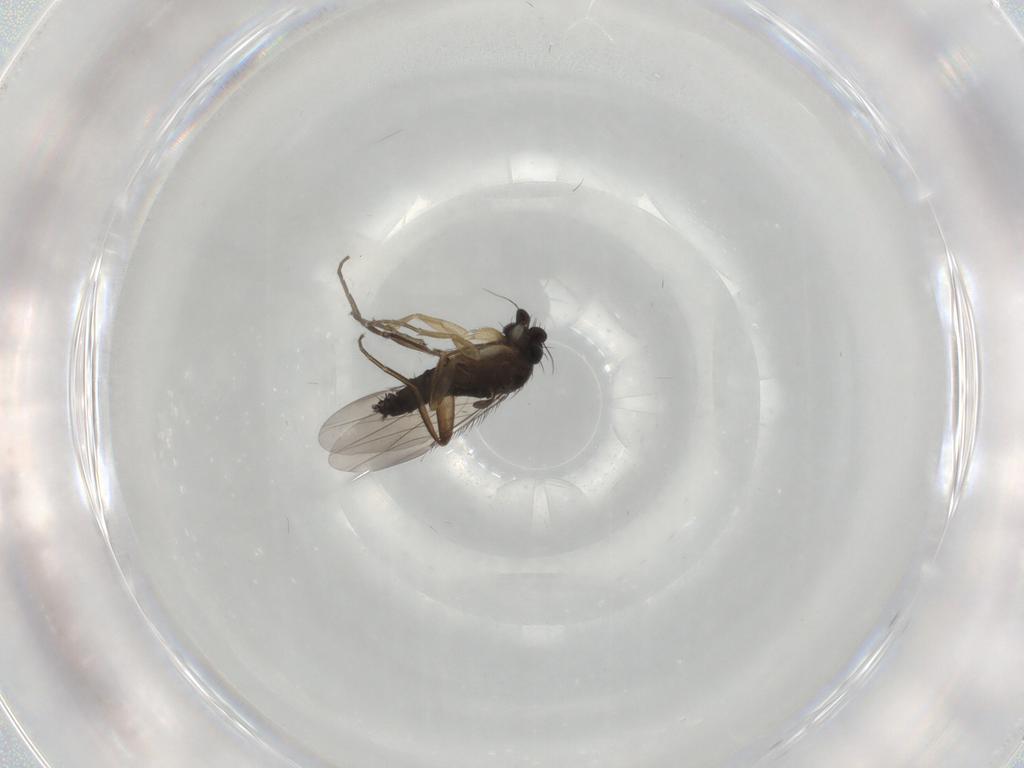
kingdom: Animalia
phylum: Arthropoda
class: Insecta
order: Diptera
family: Phoridae
